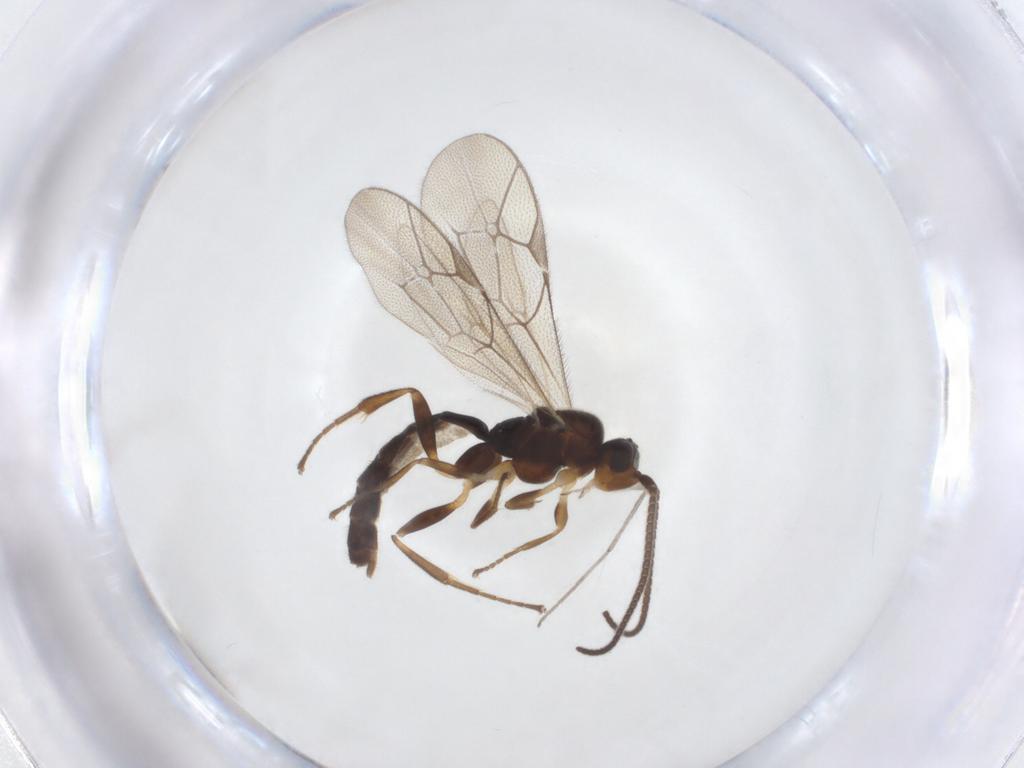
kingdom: Animalia
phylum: Arthropoda
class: Insecta
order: Hymenoptera
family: Ichneumonidae
